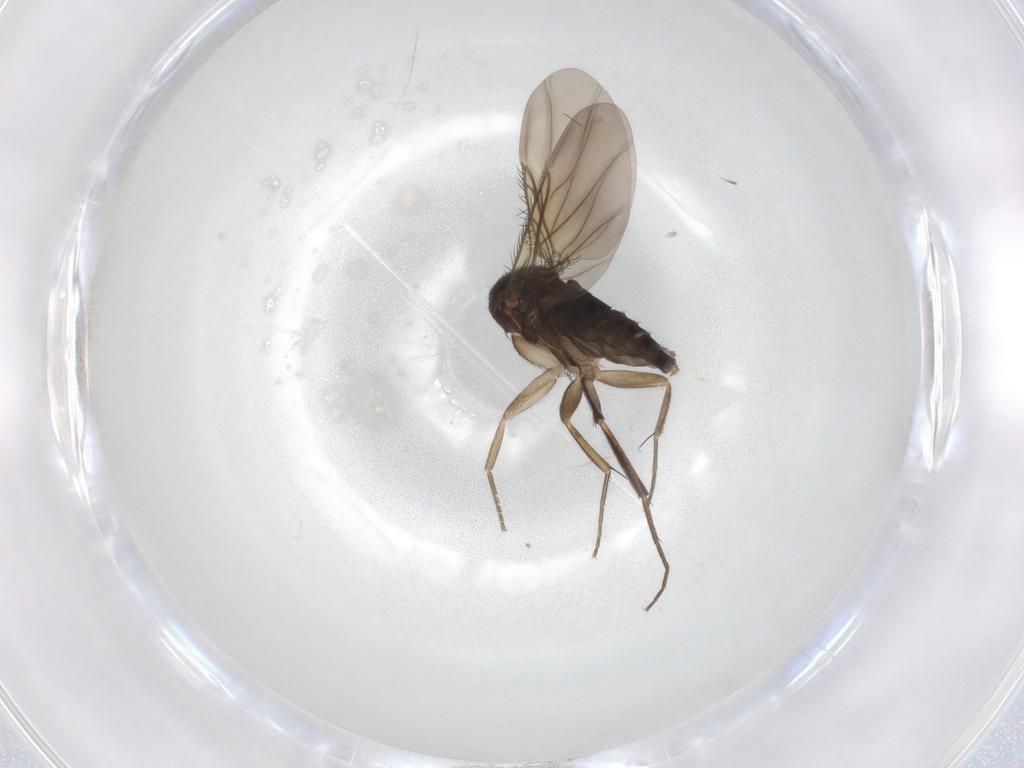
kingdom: Animalia
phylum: Arthropoda
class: Insecta
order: Diptera
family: Phoridae
